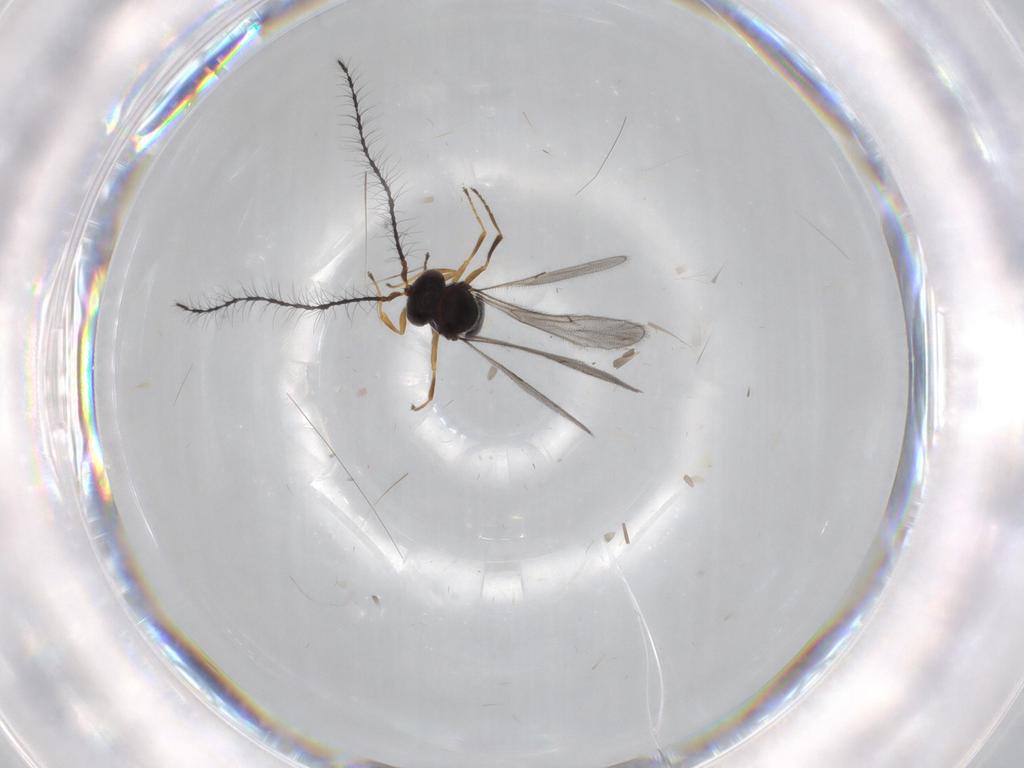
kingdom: Animalia
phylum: Arthropoda
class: Insecta
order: Hymenoptera
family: Scelionidae
